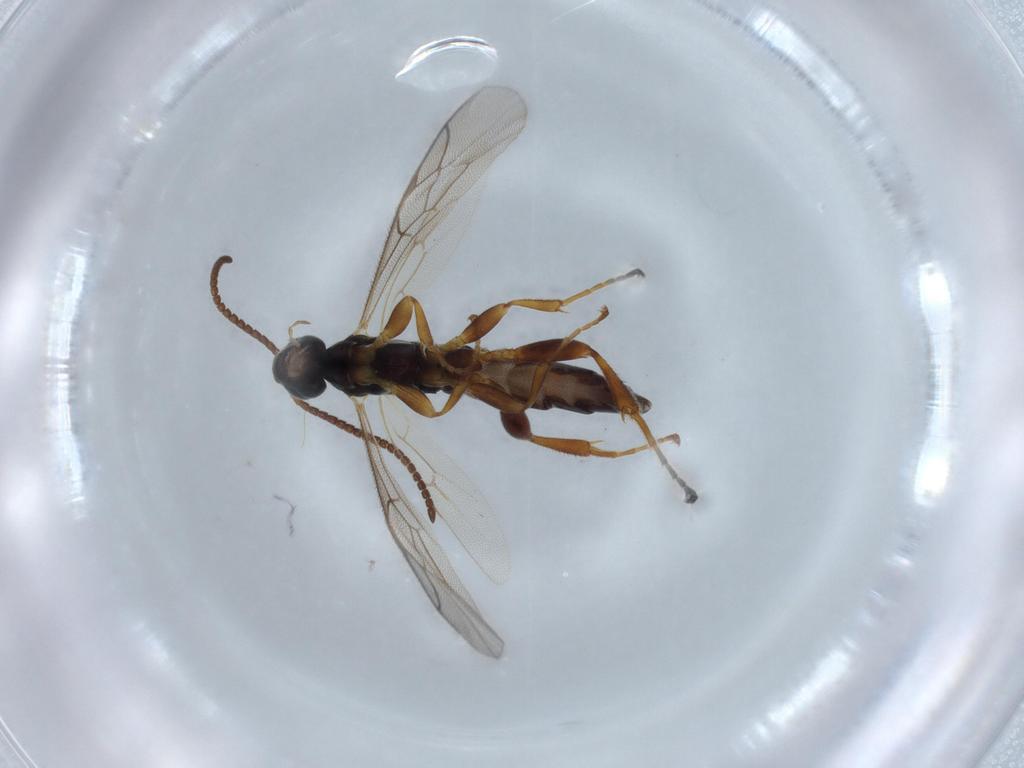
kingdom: Animalia
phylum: Arthropoda
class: Insecta
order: Hymenoptera
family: Ichneumonidae
